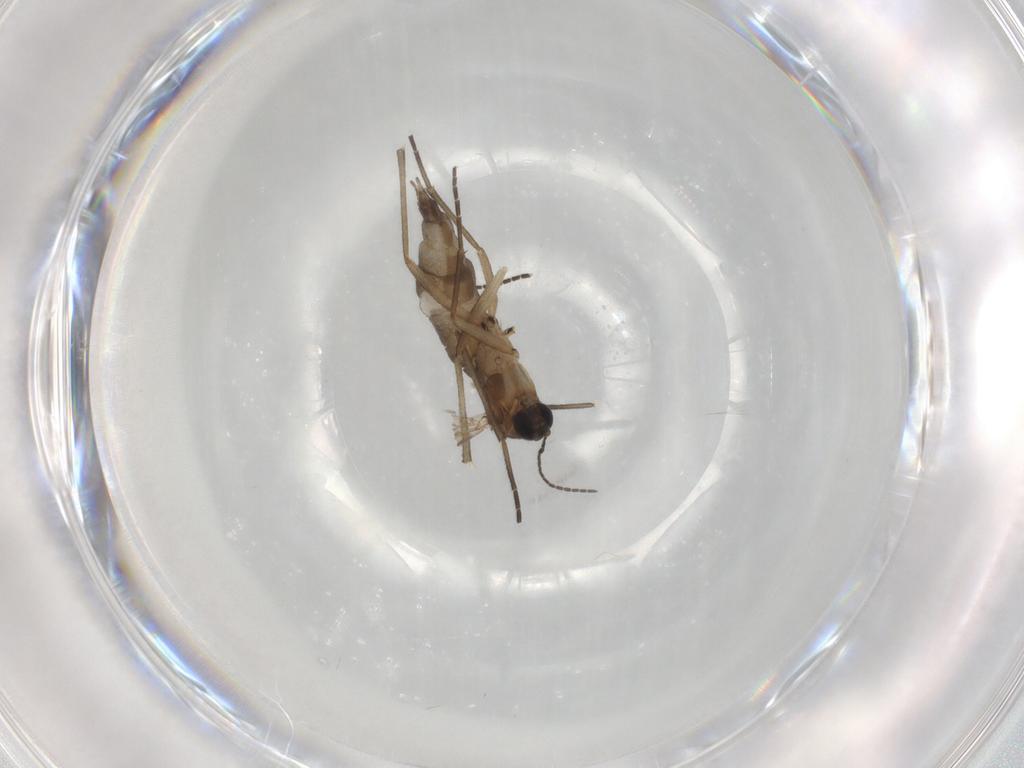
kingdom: Animalia
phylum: Arthropoda
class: Insecta
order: Diptera
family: Sciaridae
